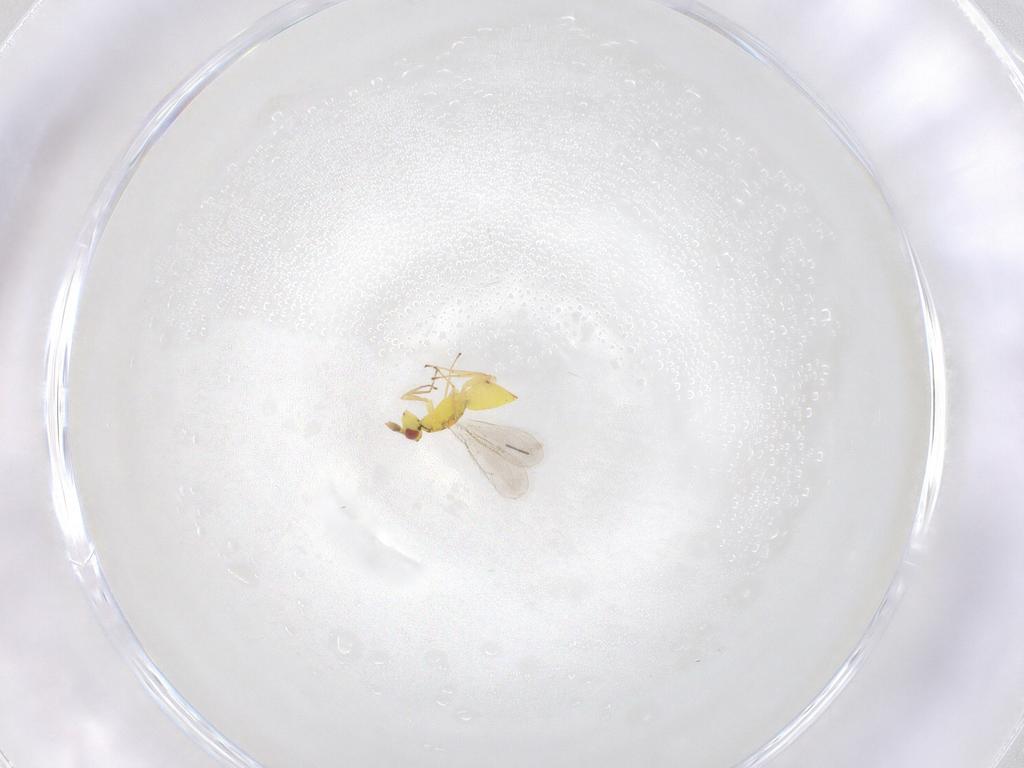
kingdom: Animalia
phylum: Arthropoda
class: Insecta
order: Hymenoptera
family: Eulophidae
